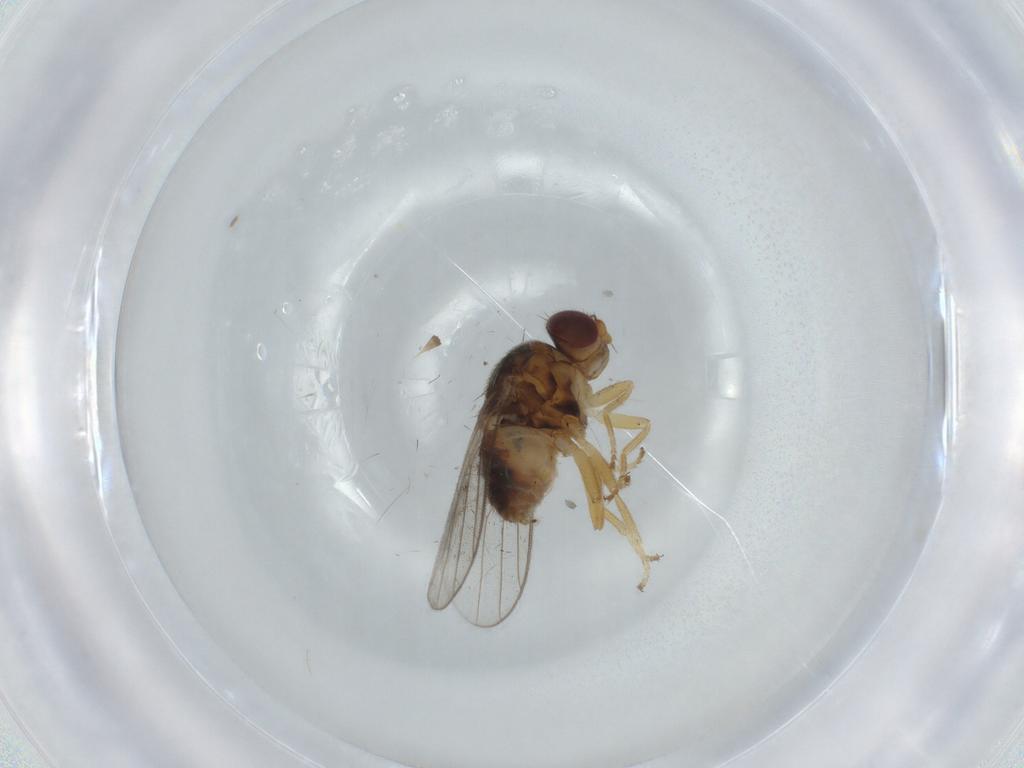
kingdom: Animalia
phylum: Arthropoda
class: Insecta
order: Diptera
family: Chloropidae
